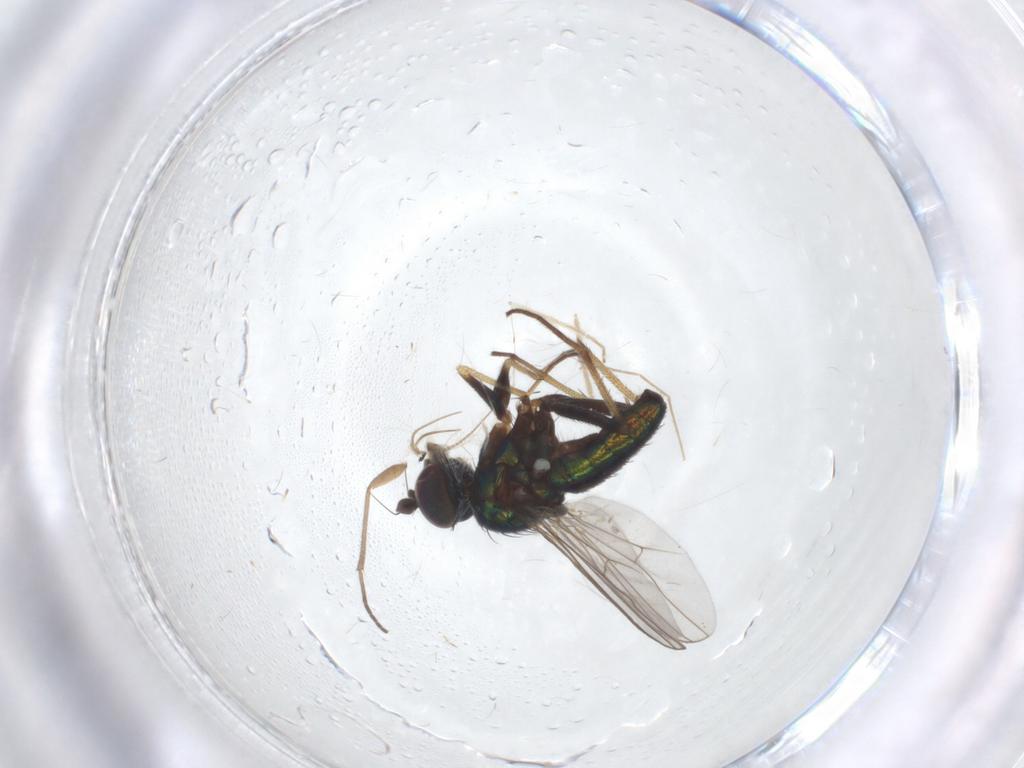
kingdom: Animalia
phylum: Arthropoda
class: Insecta
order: Diptera
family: Dolichopodidae
